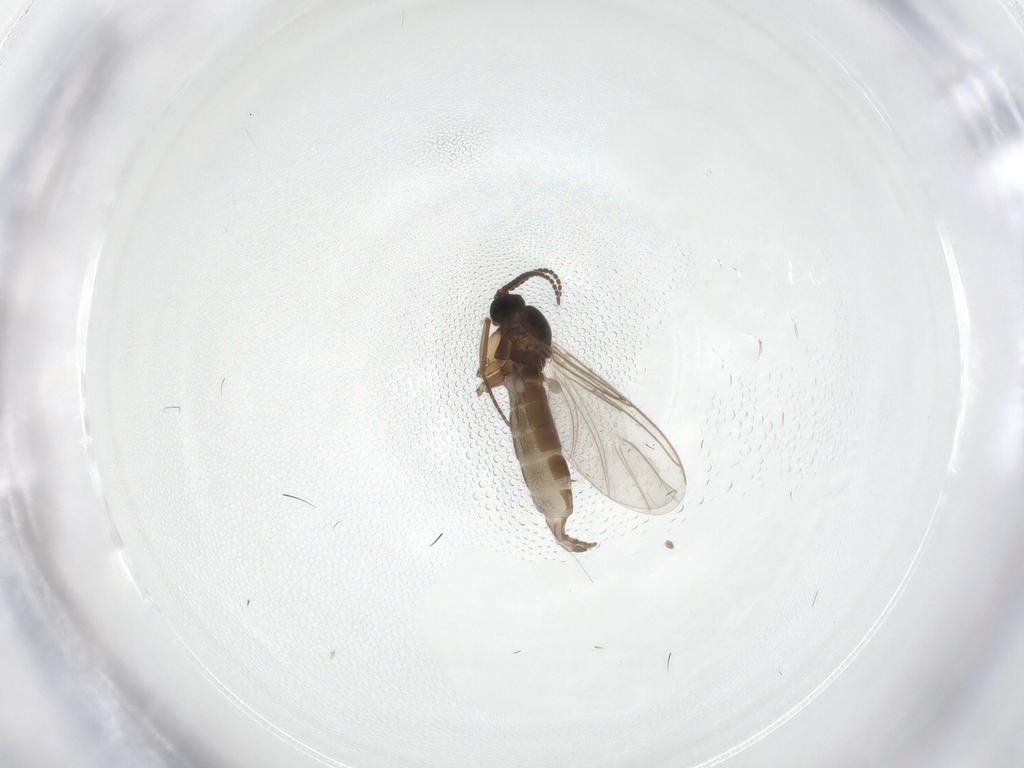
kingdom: Animalia
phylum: Arthropoda
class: Insecta
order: Diptera
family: Sciaridae
